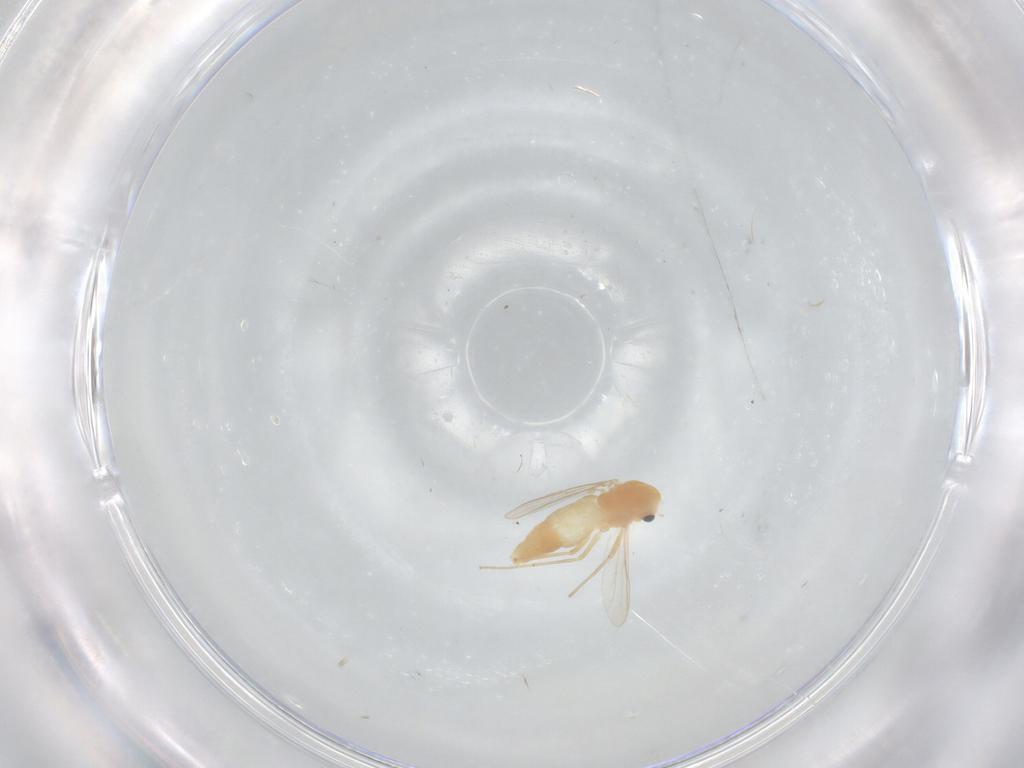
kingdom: Animalia
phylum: Arthropoda
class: Insecta
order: Diptera
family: Chironomidae
